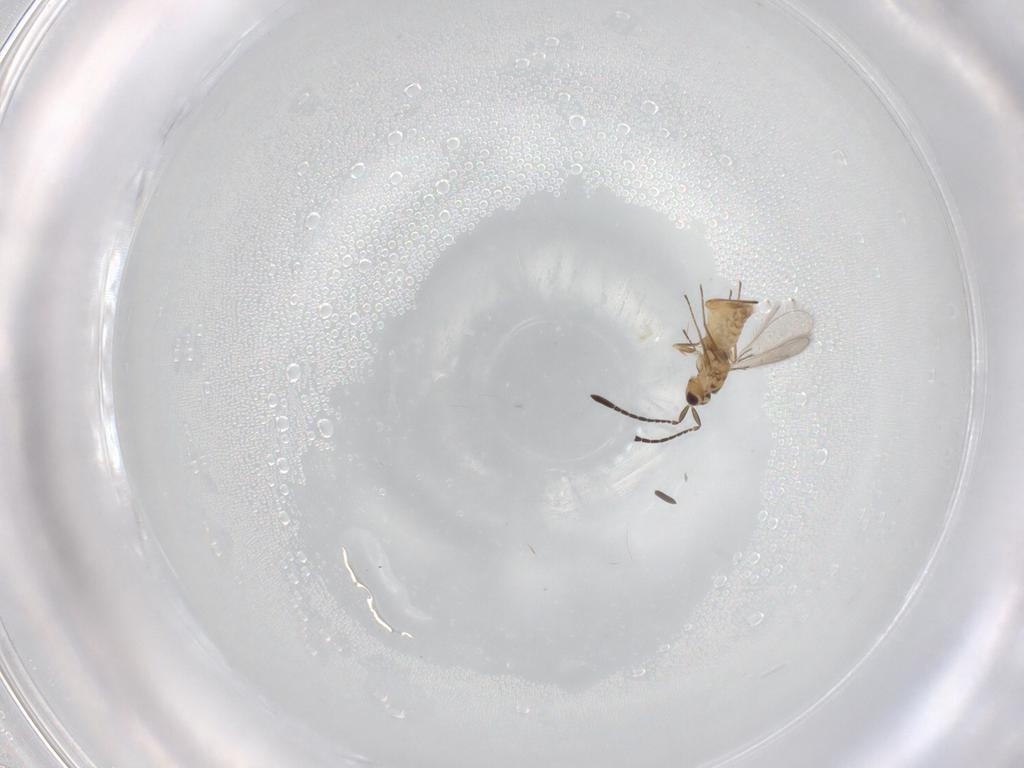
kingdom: Animalia
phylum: Arthropoda
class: Insecta
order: Hymenoptera
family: Mymaridae
